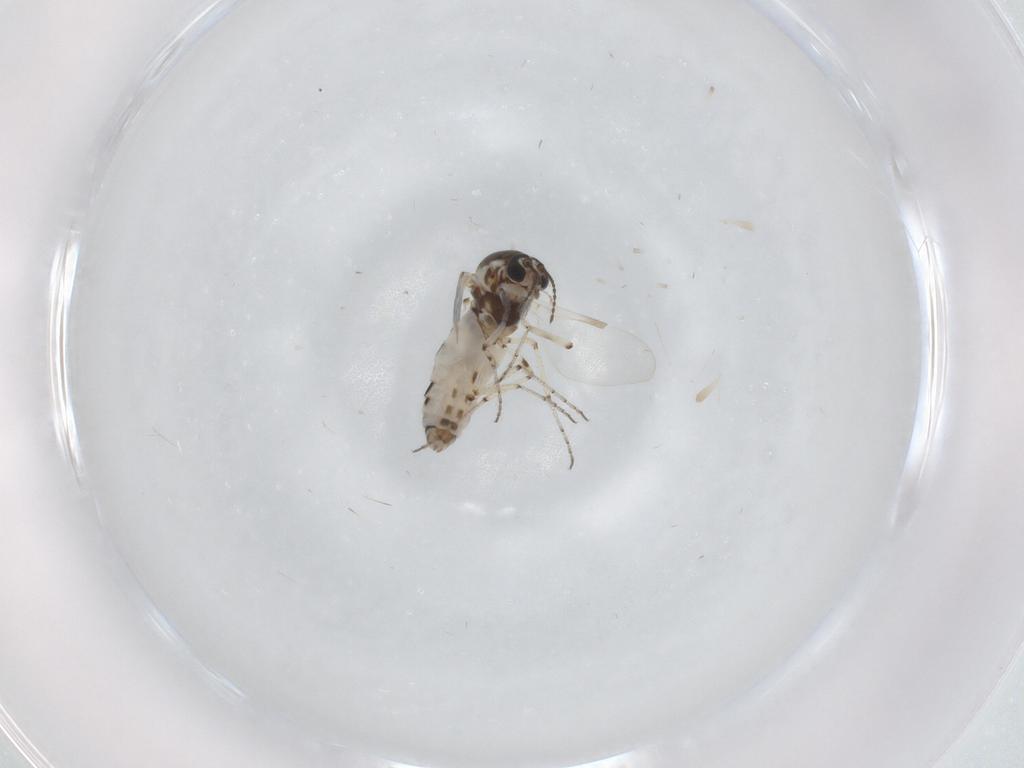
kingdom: Animalia
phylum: Arthropoda
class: Insecta
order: Diptera
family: Ceratopogonidae
